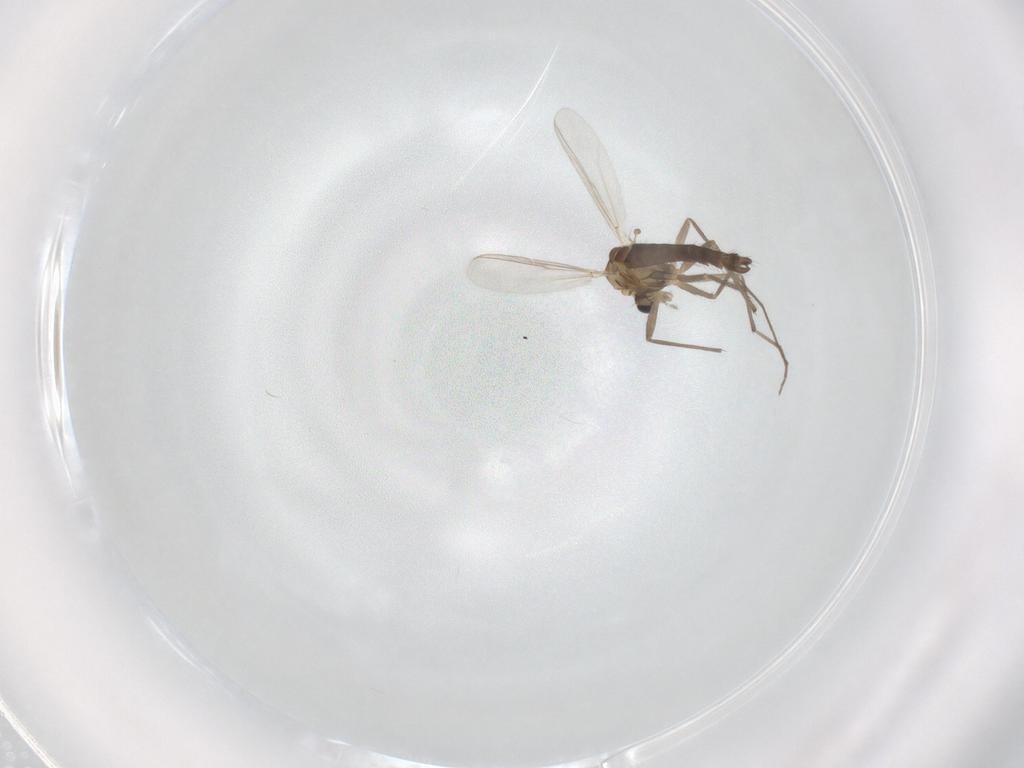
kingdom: Animalia
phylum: Arthropoda
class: Insecta
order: Diptera
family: Chironomidae
